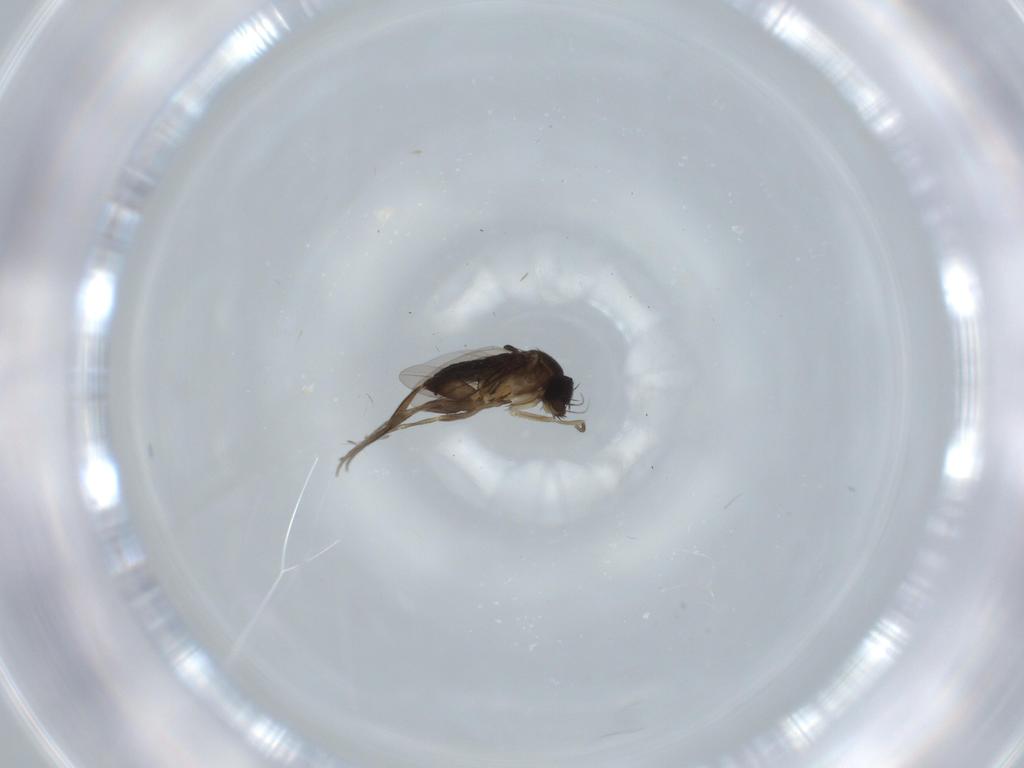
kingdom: Animalia
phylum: Arthropoda
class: Insecta
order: Diptera
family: Phoridae
